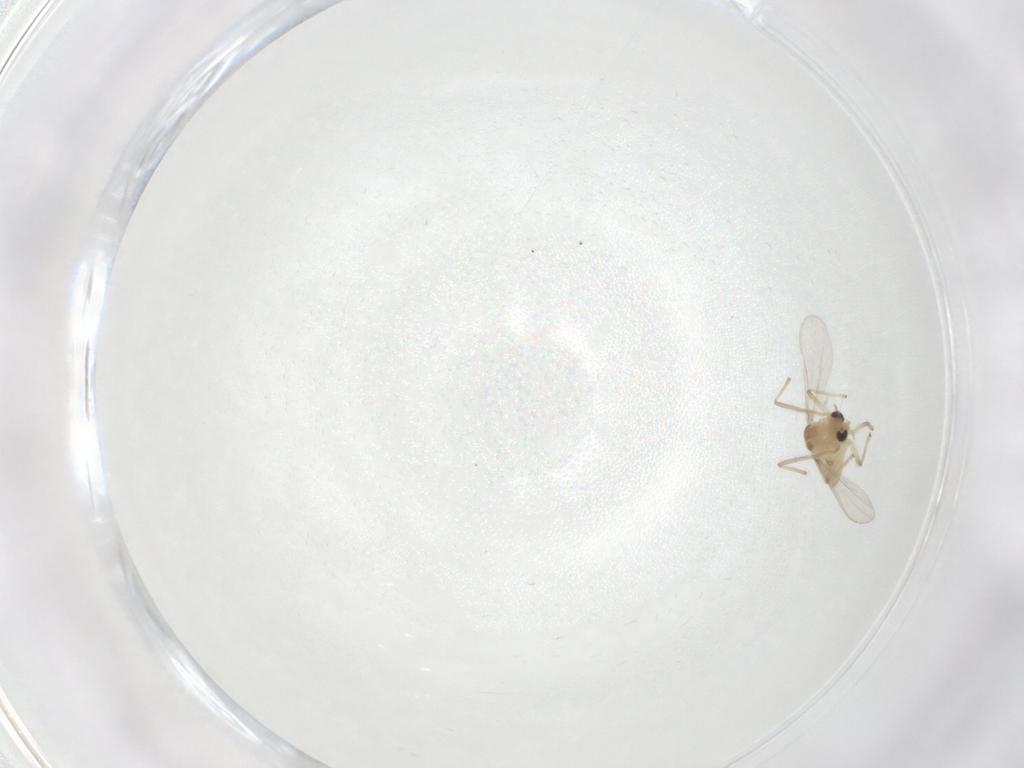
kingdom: Animalia
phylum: Arthropoda
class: Insecta
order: Diptera
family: Chironomidae
